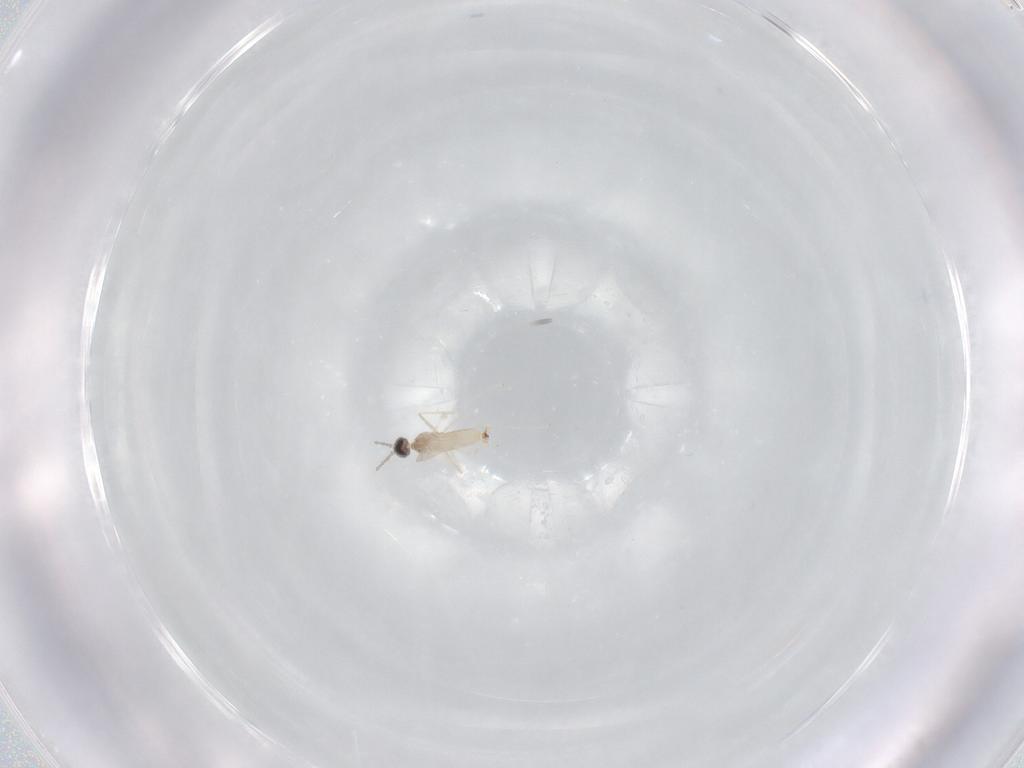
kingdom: Animalia
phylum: Arthropoda
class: Insecta
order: Diptera
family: Cecidomyiidae
